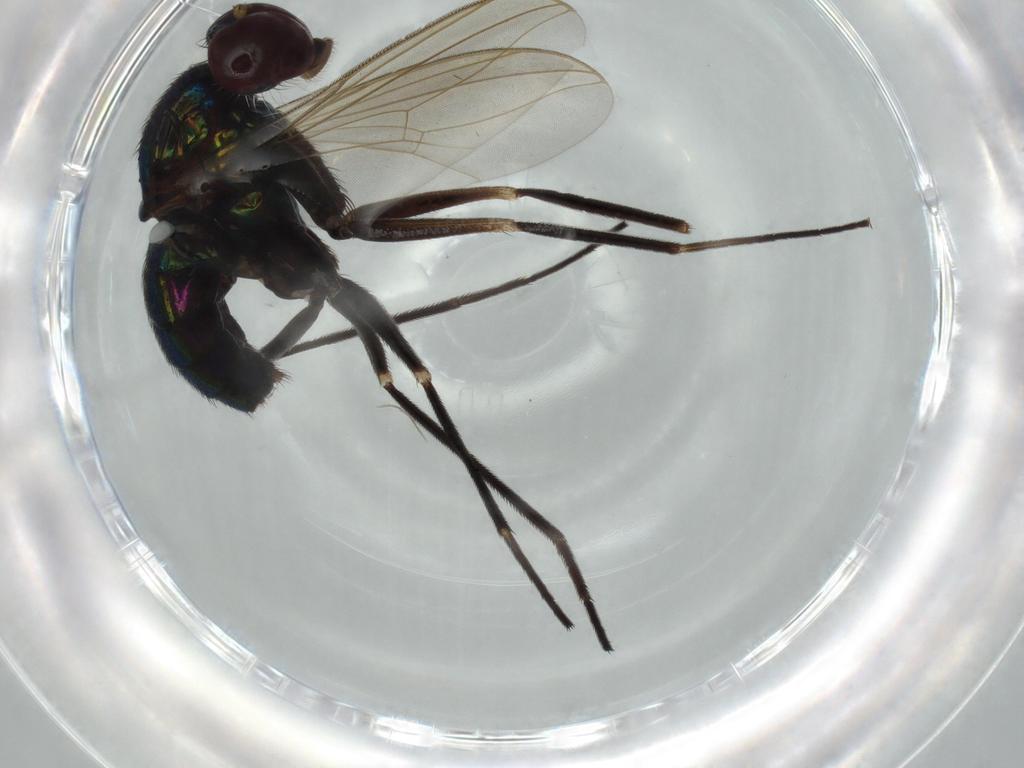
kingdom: Animalia
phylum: Arthropoda
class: Insecta
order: Diptera
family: Dolichopodidae
